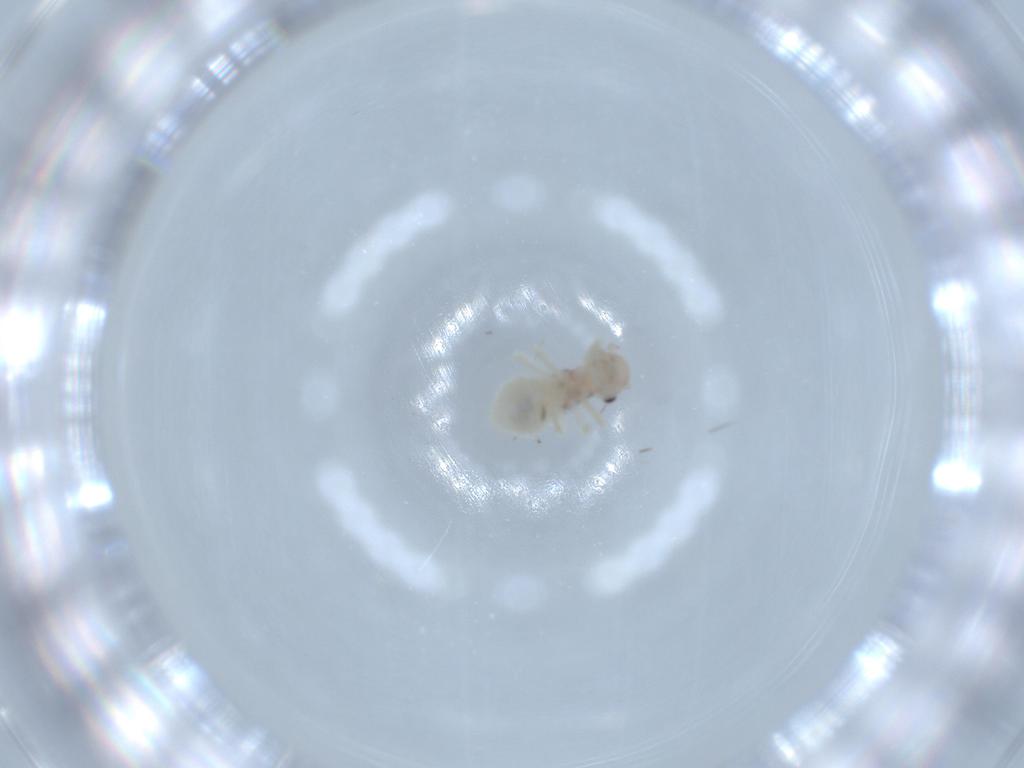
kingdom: Animalia
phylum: Arthropoda
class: Insecta
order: Psocodea
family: Amphipsocidae
